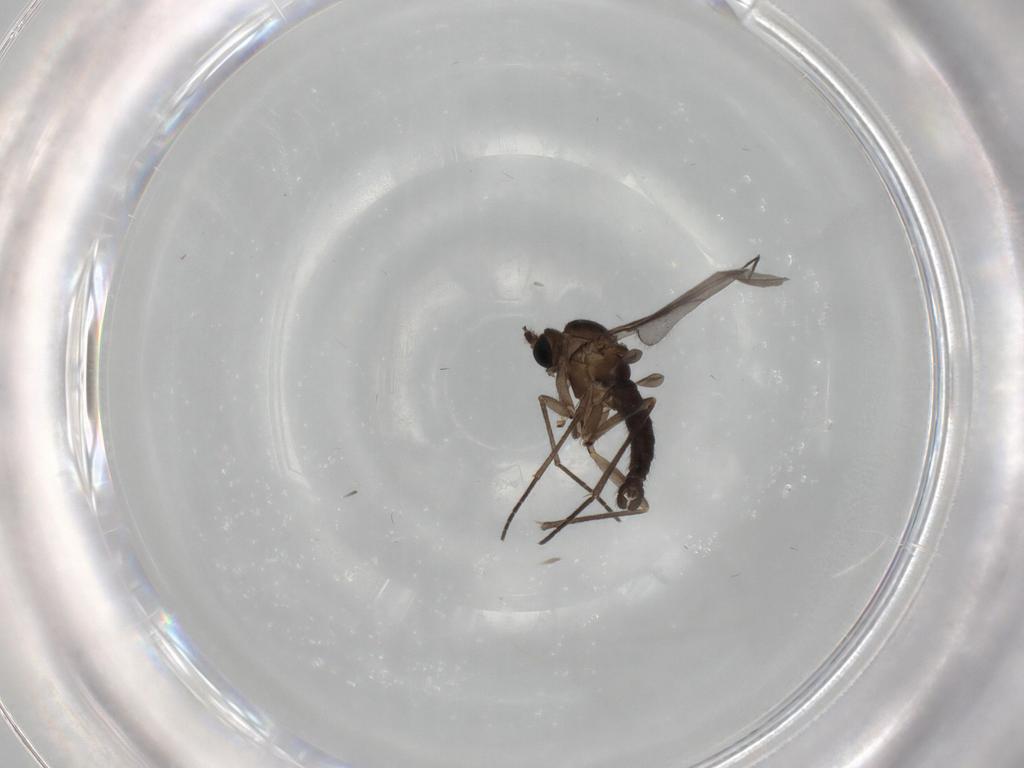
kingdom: Animalia
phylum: Arthropoda
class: Insecta
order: Diptera
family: Sciaridae
